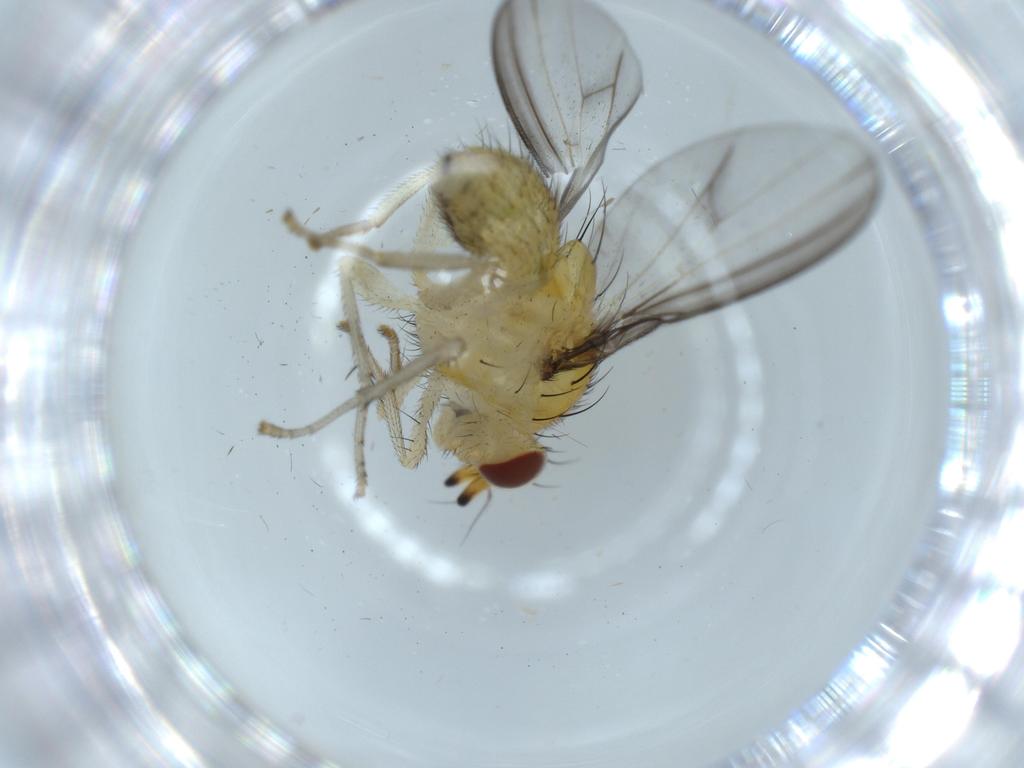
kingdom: Animalia
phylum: Arthropoda
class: Insecta
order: Diptera
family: Lauxaniidae
